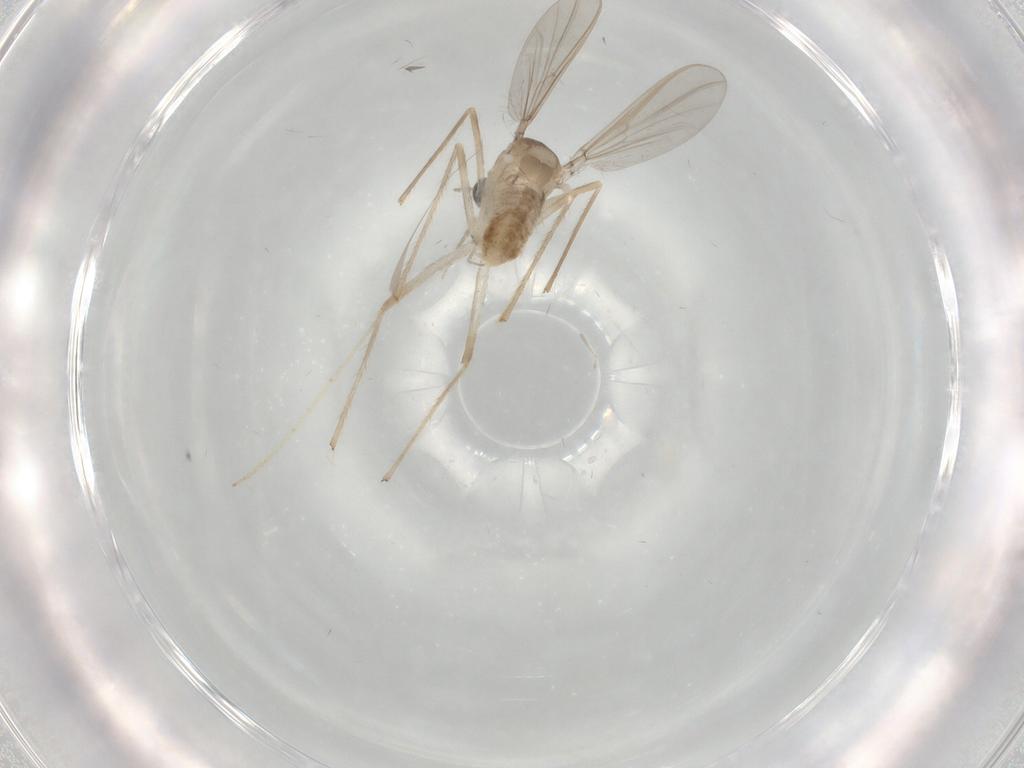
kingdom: Animalia
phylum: Arthropoda
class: Insecta
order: Diptera
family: Chironomidae
